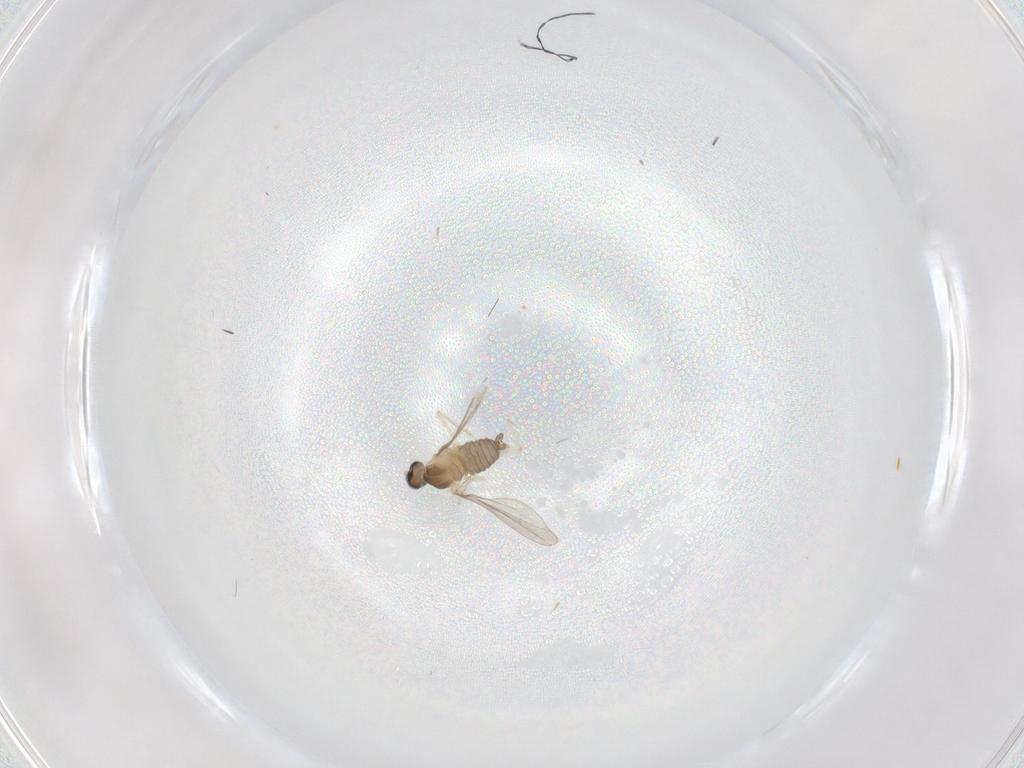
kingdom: Animalia
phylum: Arthropoda
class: Insecta
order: Diptera
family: Cecidomyiidae
